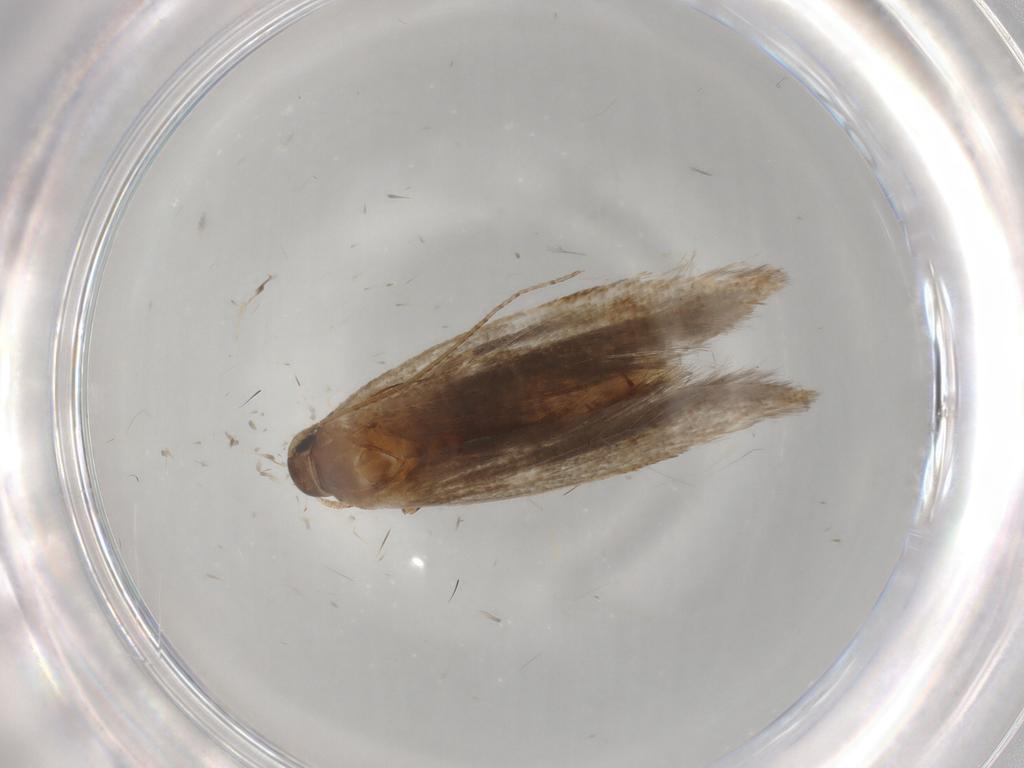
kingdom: Animalia
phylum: Arthropoda
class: Insecta
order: Lepidoptera
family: Gelechiidae
